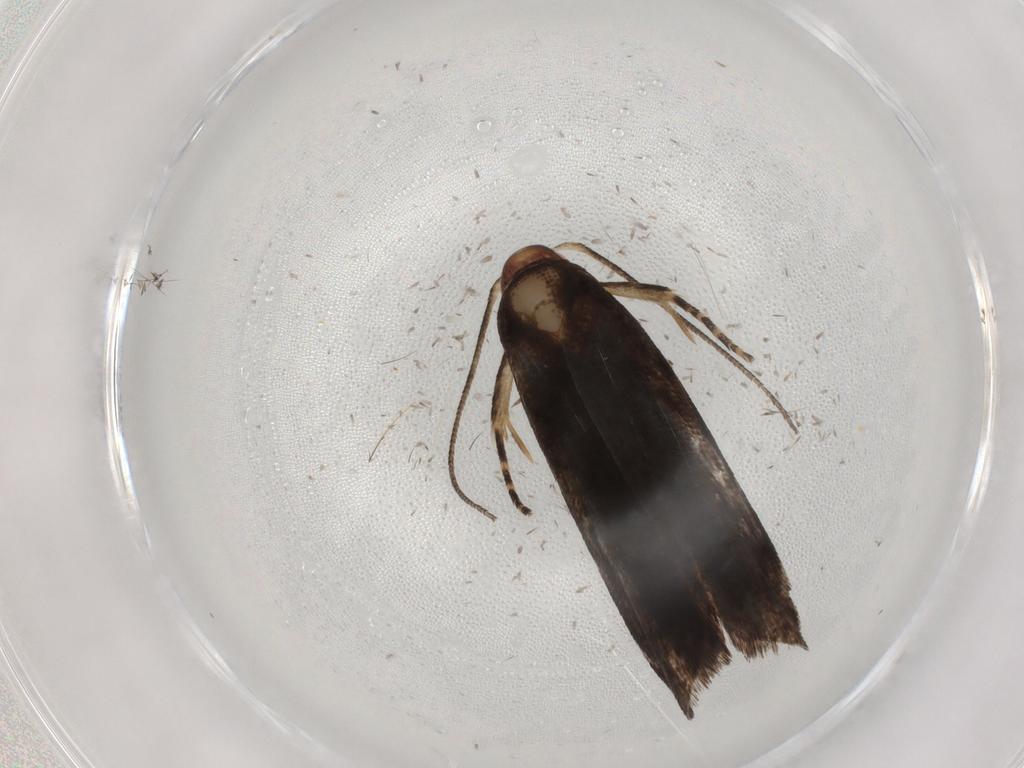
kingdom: Animalia
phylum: Arthropoda
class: Insecta
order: Lepidoptera
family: Gelechiidae
